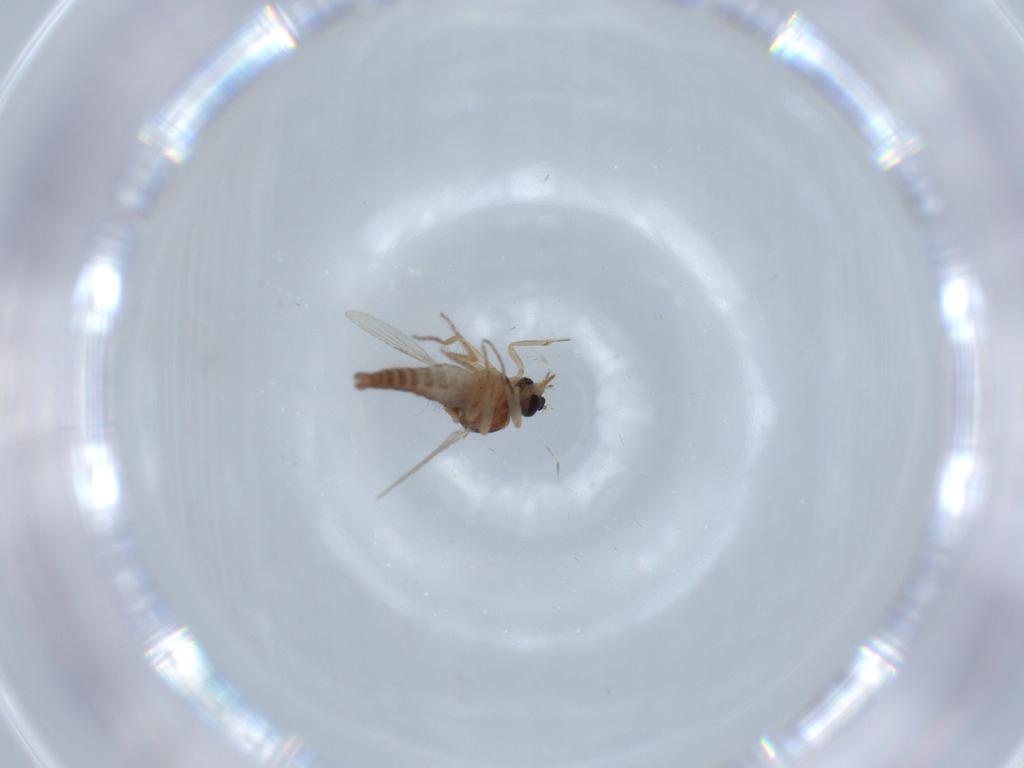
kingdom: Animalia
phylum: Arthropoda
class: Insecta
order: Diptera
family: Ceratopogonidae
